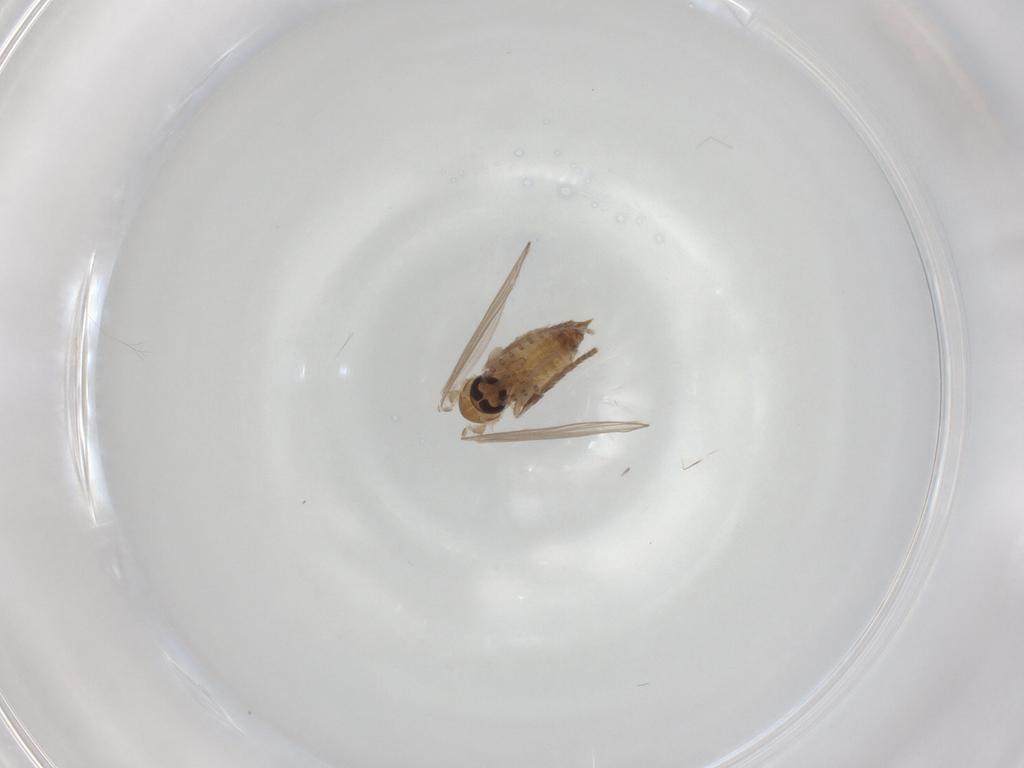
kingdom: Animalia
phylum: Arthropoda
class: Insecta
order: Diptera
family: Psychodidae
